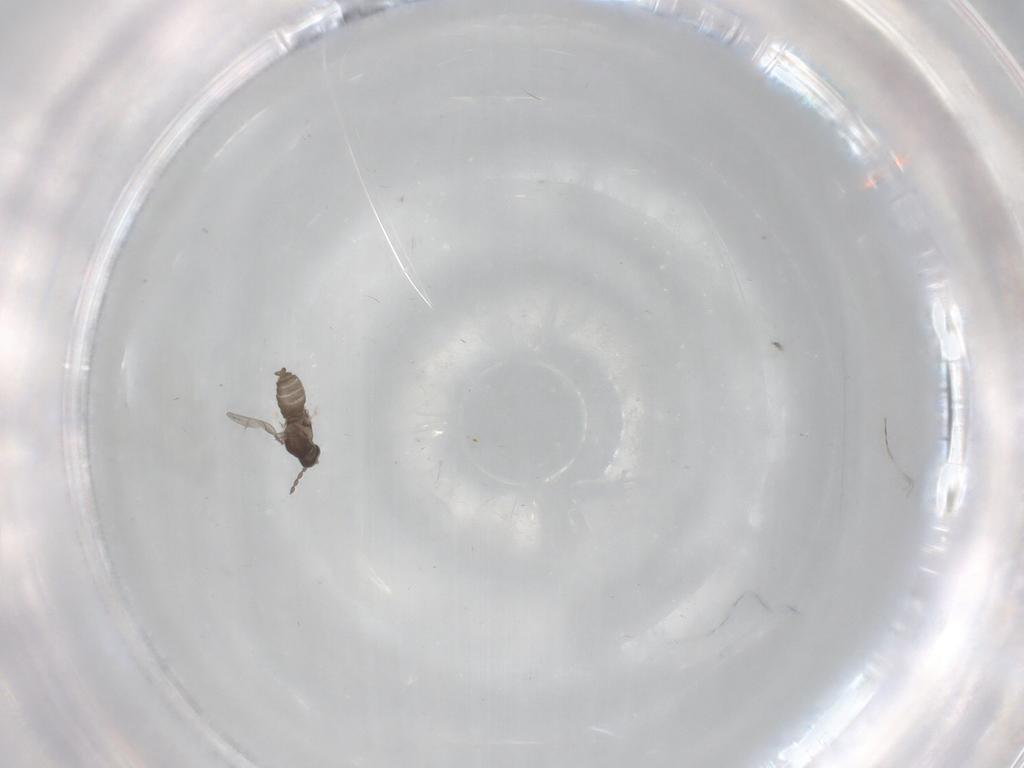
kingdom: Animalia
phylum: Arthropoda
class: Insecta
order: Diptera
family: Cecidomyiidae
